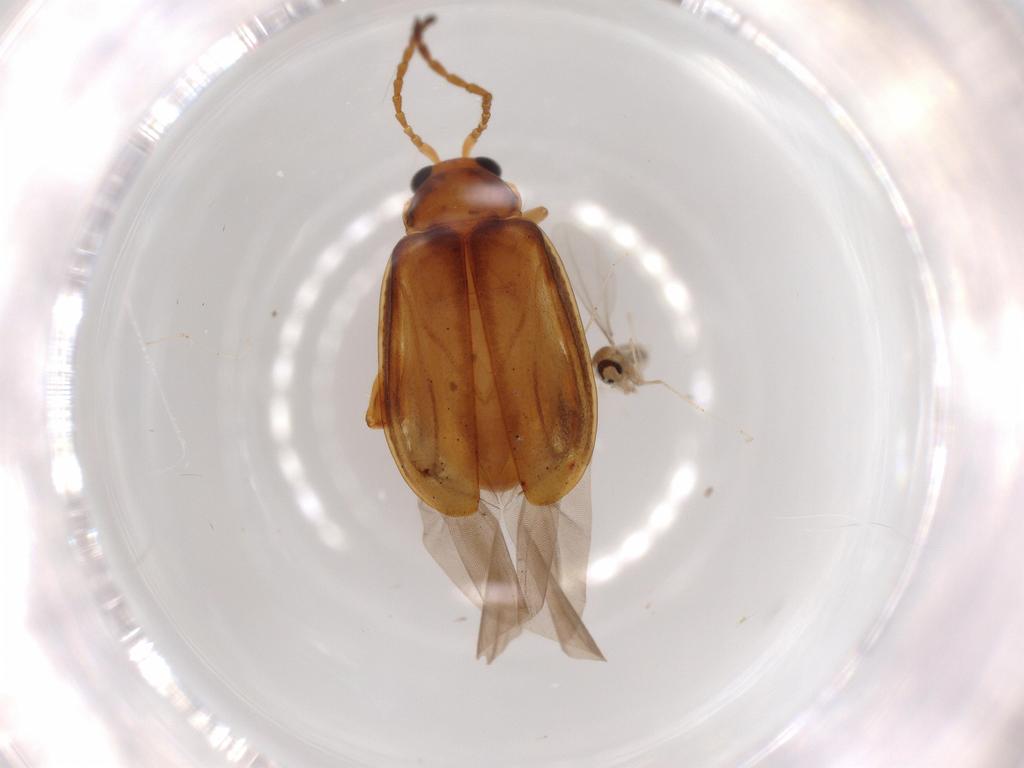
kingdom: Animalia
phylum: Arthropoda
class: Insecta
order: Coleoptera
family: Chrysomelidae
